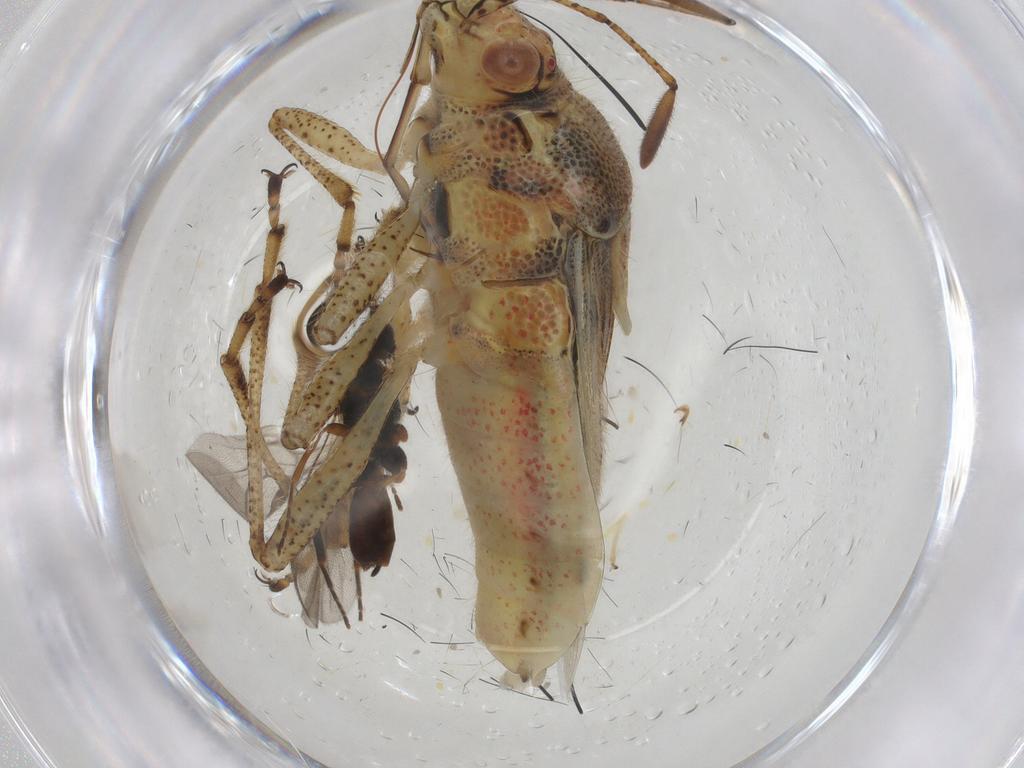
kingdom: Animalia
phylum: Arthropoda
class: Insecta
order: Hemiptera
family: Rhopalidae
